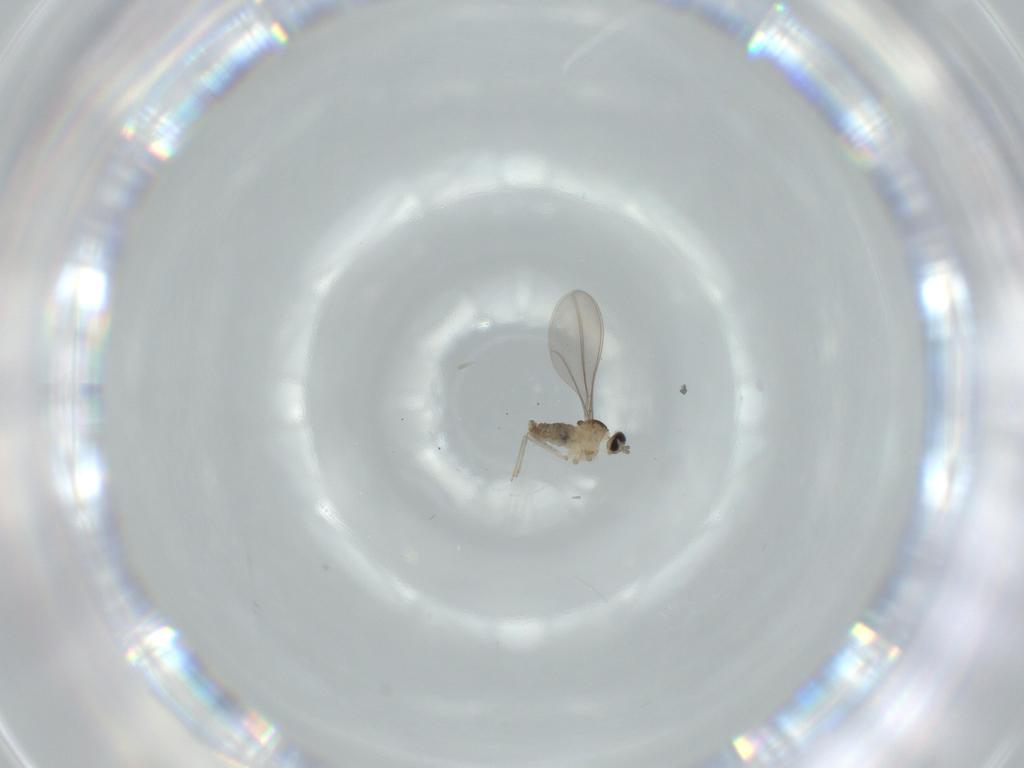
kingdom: Animalia
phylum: Arthropoda
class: Insecta
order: Diptera
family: Cecidomyiidae
